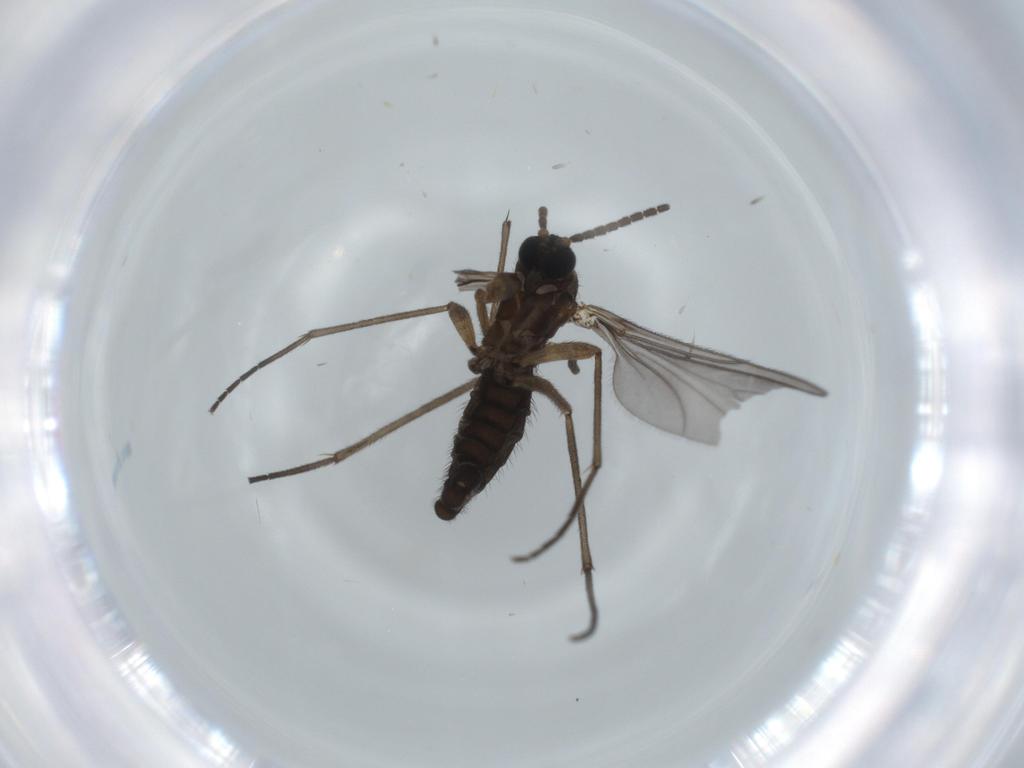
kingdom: Animalia
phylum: Arthropoda
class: Insecta
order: Diptera
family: Sciaridae
